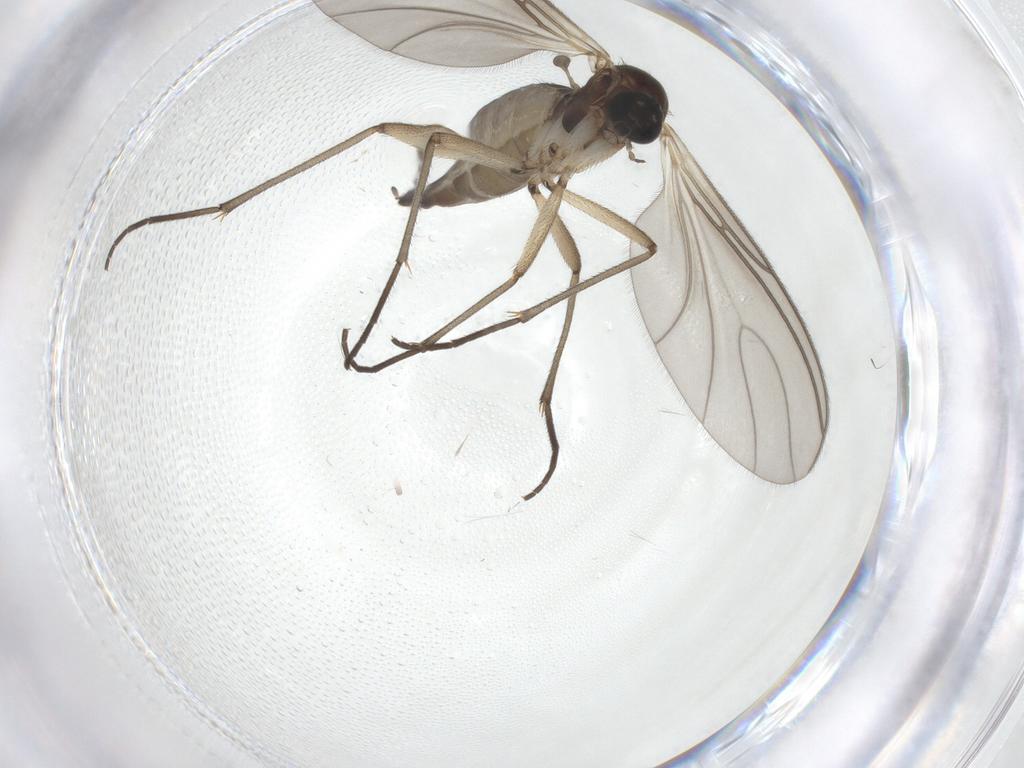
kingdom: Animalia
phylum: Arthropoda
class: Insecta
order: Diptera
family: Sciaridae
